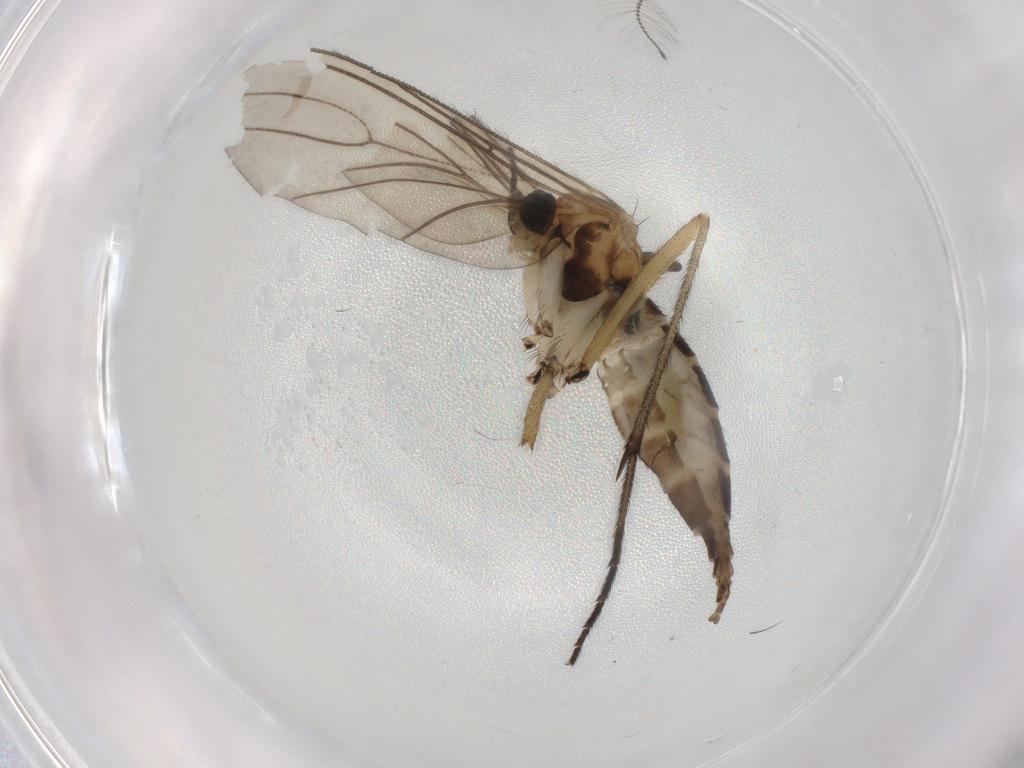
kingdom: Animalia
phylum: Arthropoda
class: Insecta
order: Diptera
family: Sciaridae
